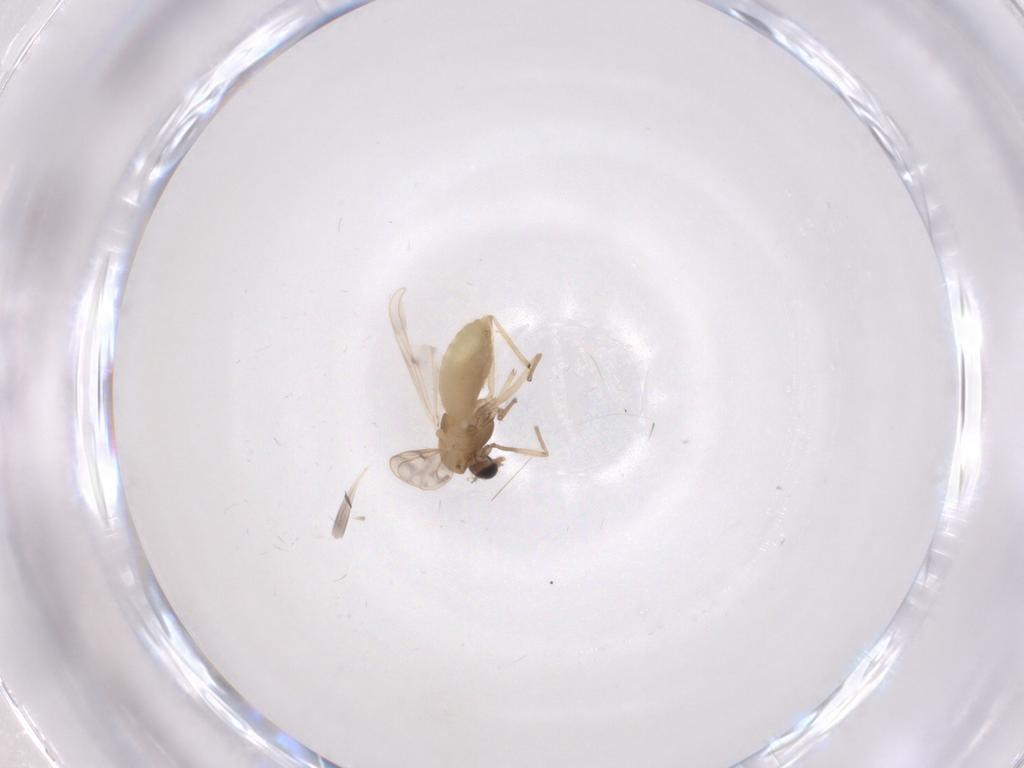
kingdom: Animalia
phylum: Arthropoda
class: Insecta
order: Diptera
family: Chironomidae
